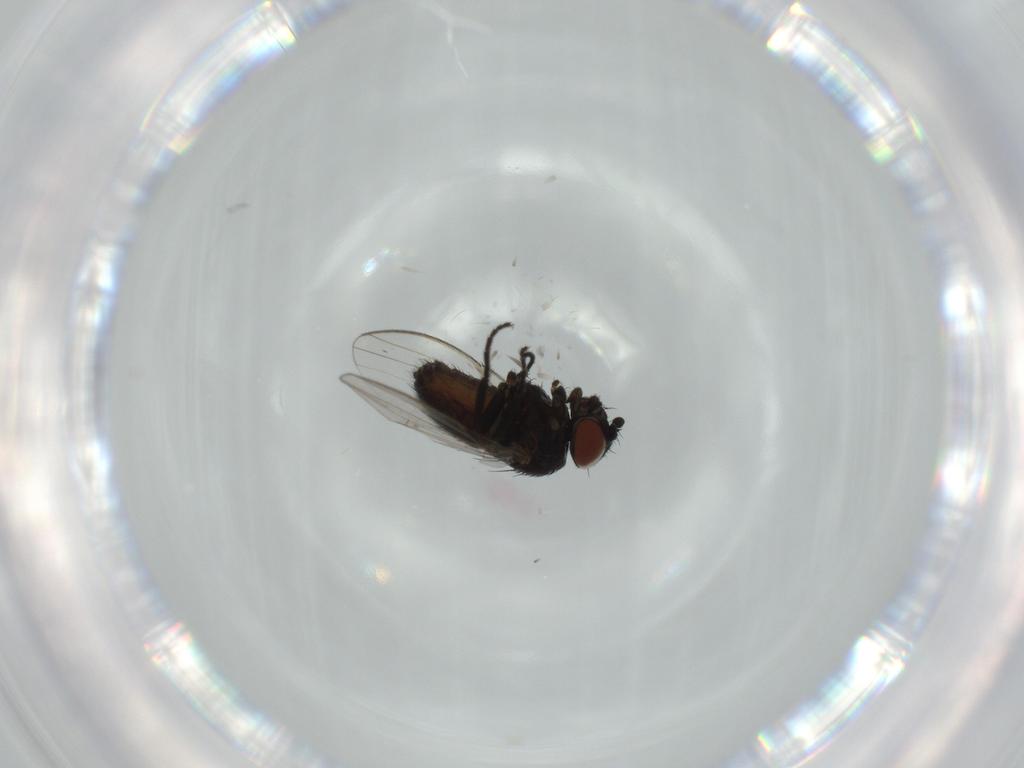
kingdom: Animalia
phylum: Arthropoda
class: Insecta
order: Diptera
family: Milichiidae
